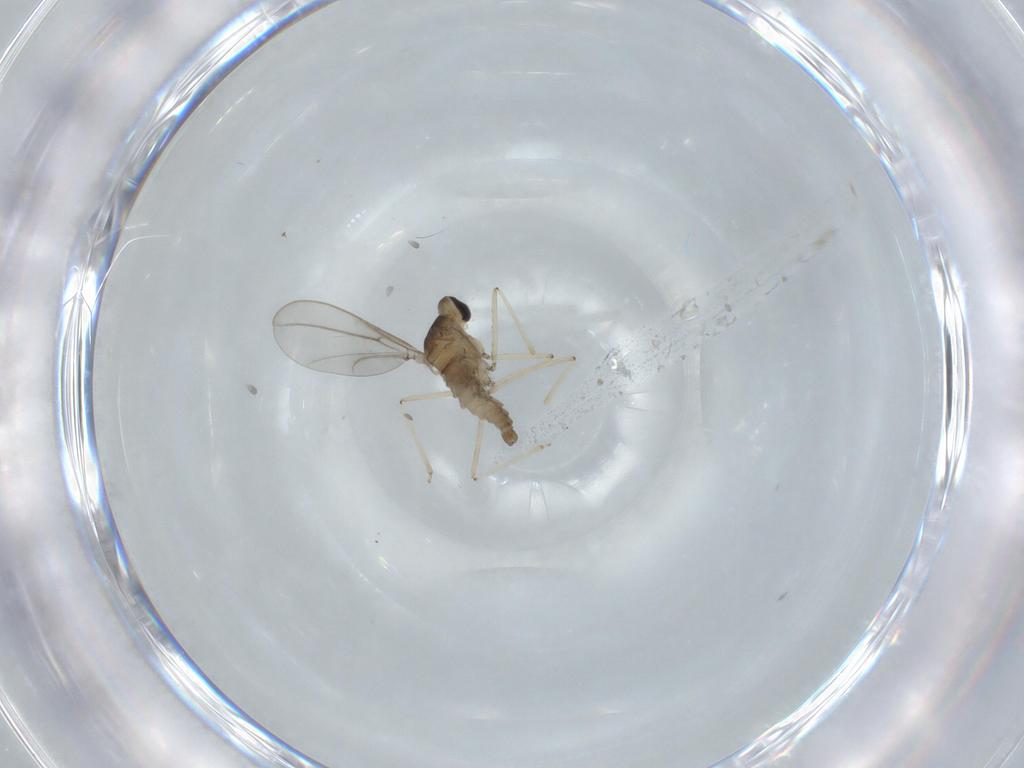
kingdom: Animalia
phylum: Arthropoda
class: Insecta
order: Diptera
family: Cecidomyiidae
